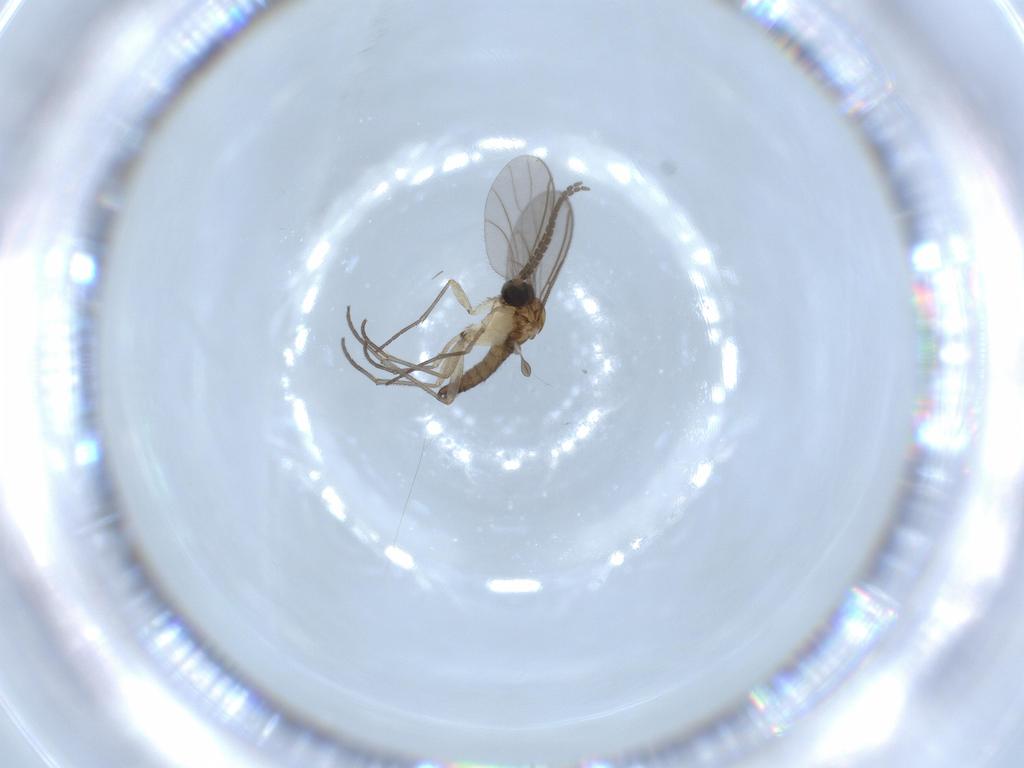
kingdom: Animalia
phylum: Arthropoda
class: Insecta
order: Diptera
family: Sciaridae
